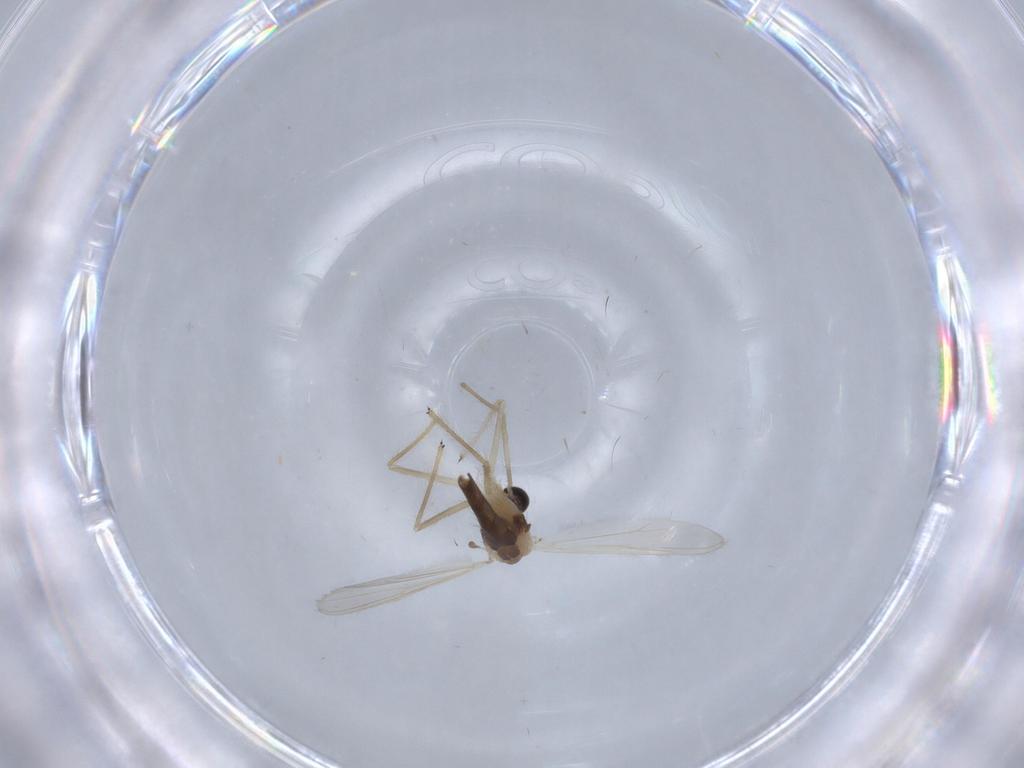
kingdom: Animalia
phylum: Arthropoda
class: Insecta
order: Diptera
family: Chironomidae
